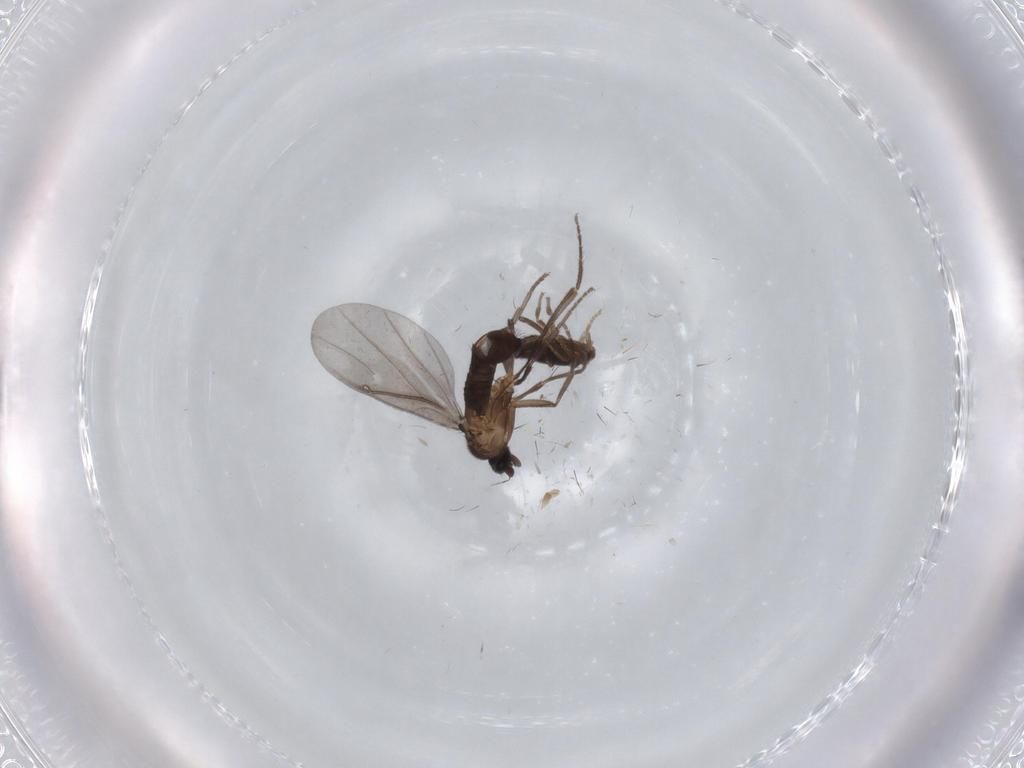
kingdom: Animalia
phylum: Arthropoda
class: Insecta
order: Diptera
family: Phoridae
